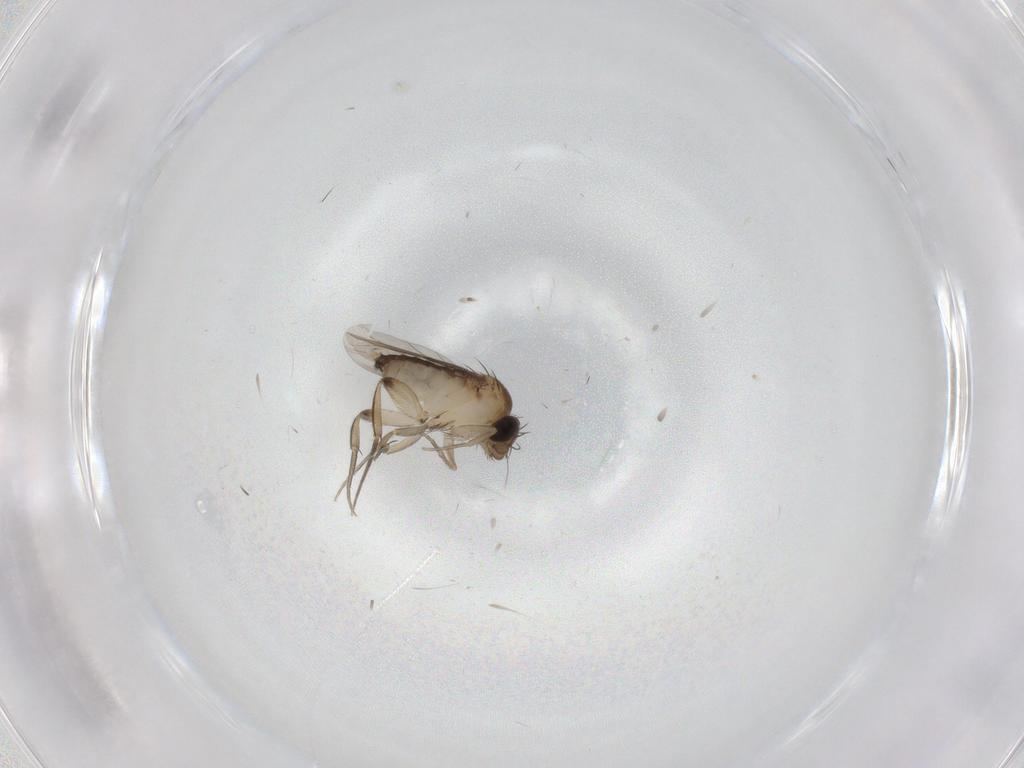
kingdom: Animalia
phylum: Arthropoda
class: Insecta
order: Diptera
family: Phoridae
